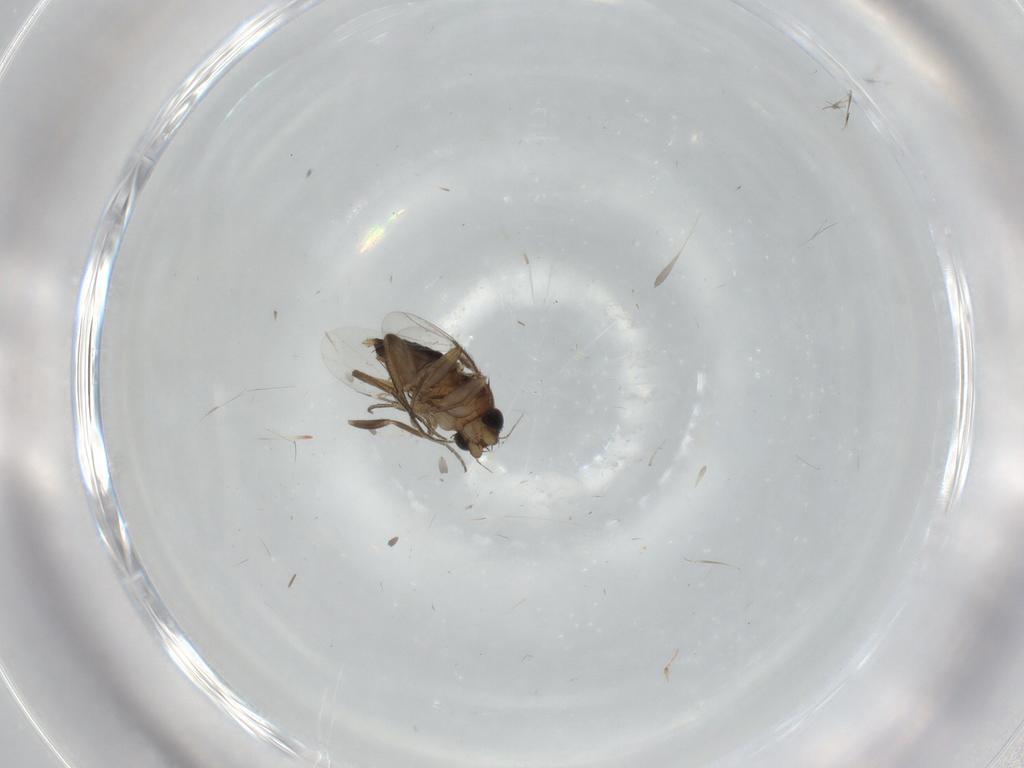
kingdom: Animalia
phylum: Arthropoda
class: Insecta
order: Diptera
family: Phoridae
